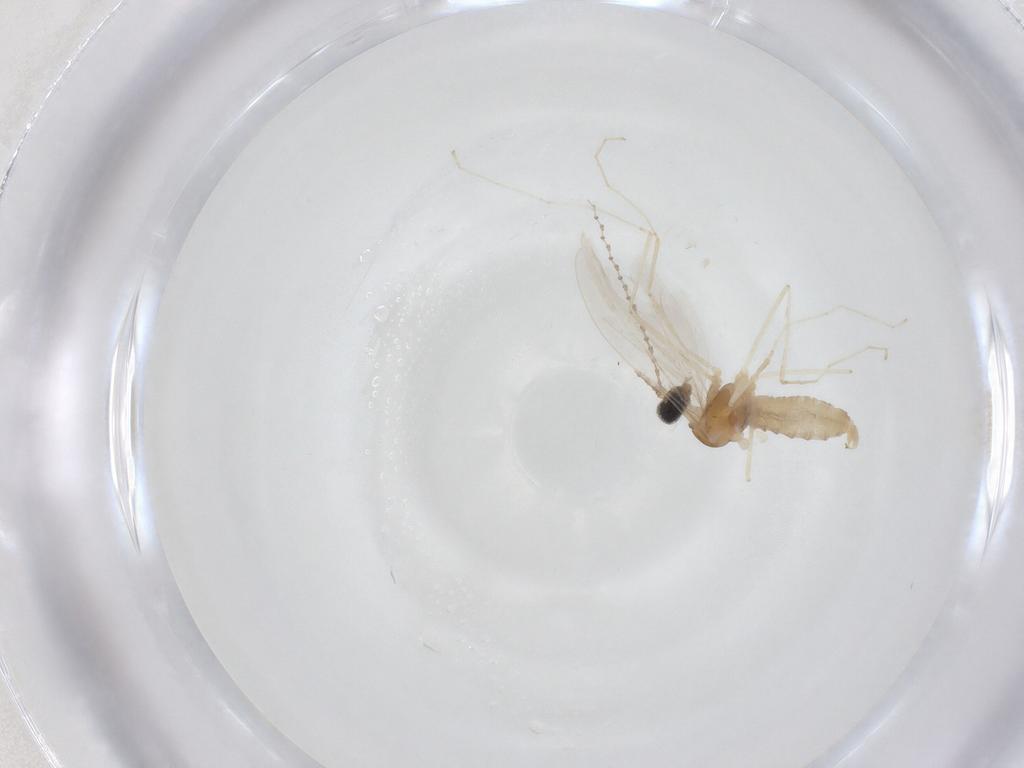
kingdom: Animalia
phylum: Arthropoda
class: Insecta
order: Diptera
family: Cecidomyiidae
